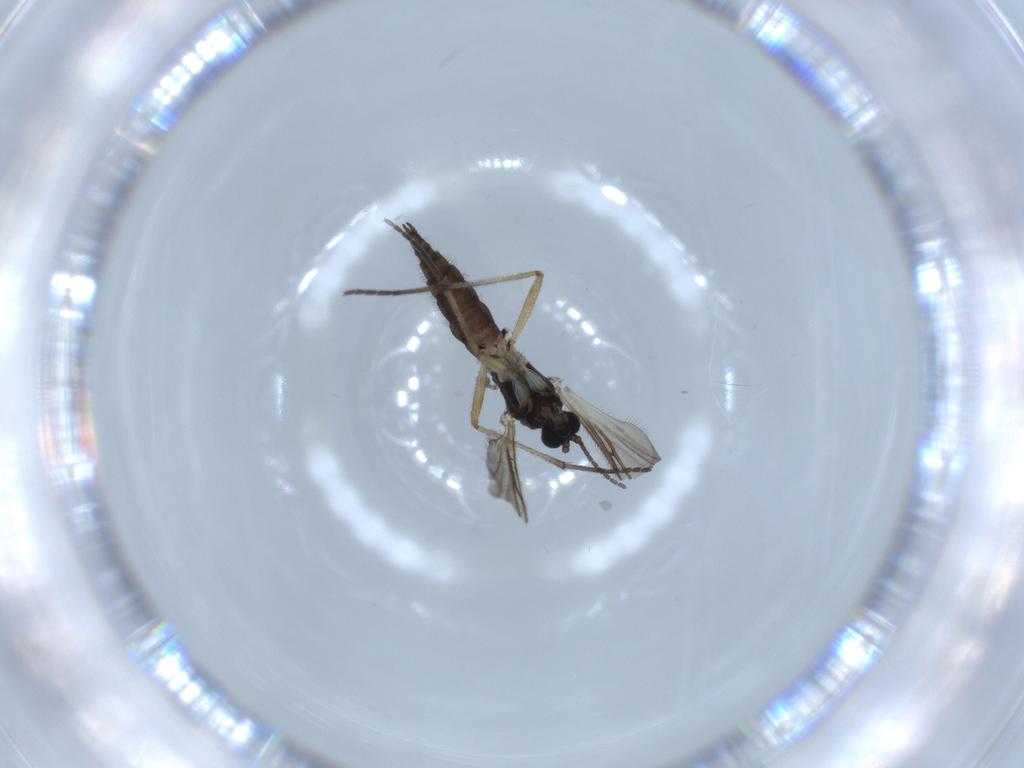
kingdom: Animalia
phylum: Arthropoda
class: Insecta
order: Diptera
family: Sciaridae
